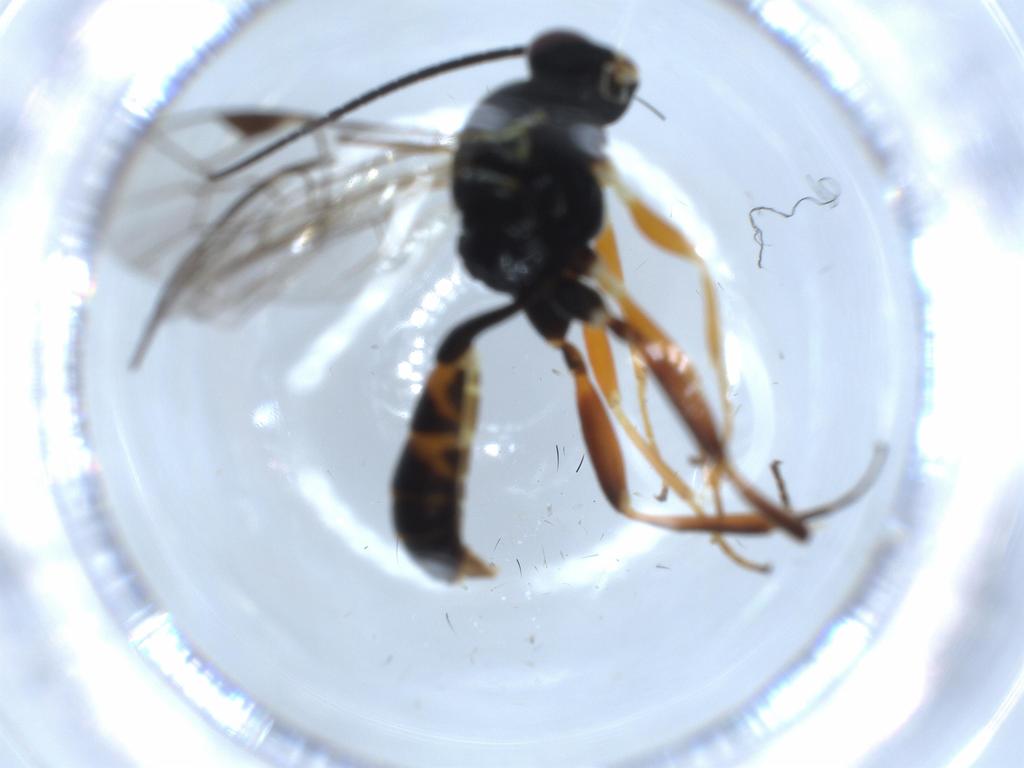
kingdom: Animalia
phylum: Arthropoda
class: Insecta
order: Hymenoptera
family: Ichneumonidae
